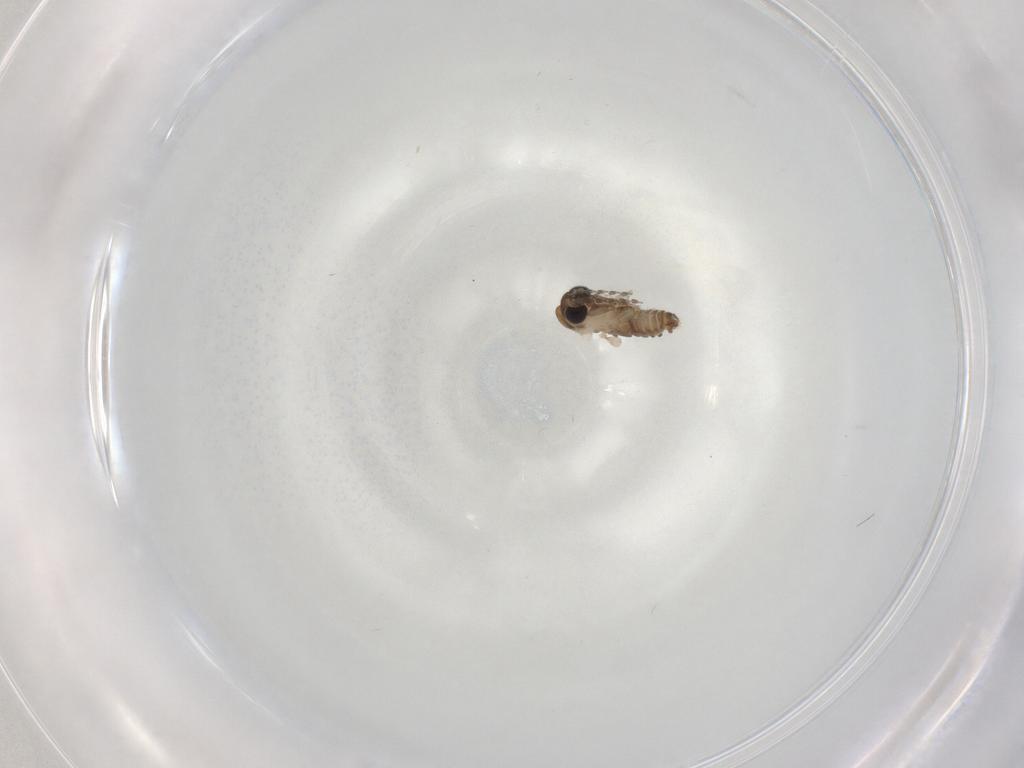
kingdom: Animalia
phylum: Arthropoda
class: Insecta
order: Diptera
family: Psychodidae
